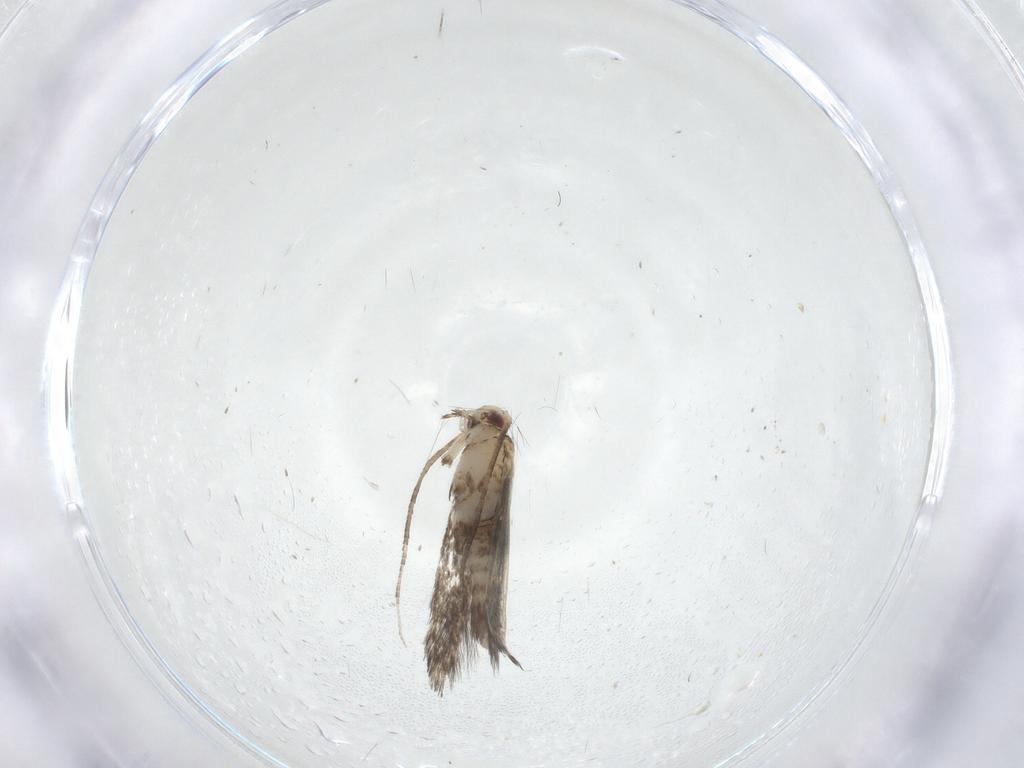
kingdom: Animalia
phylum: Arthropoda
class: Insecta
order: Lepidoptera
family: Gracillariidae
